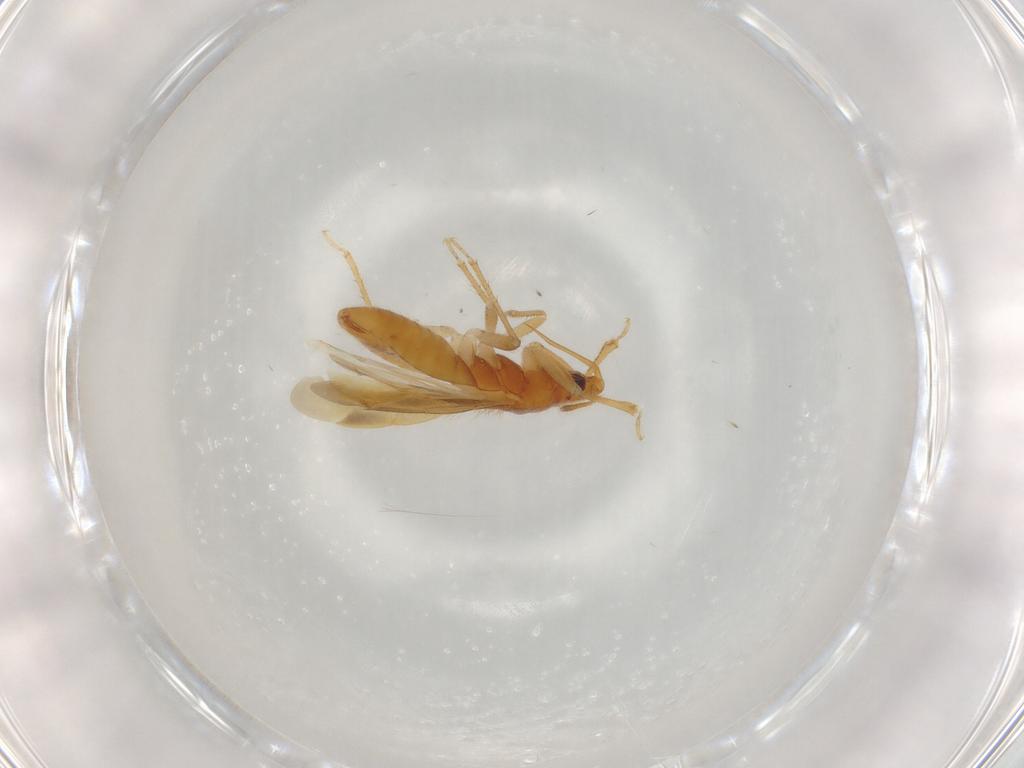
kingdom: Animalia
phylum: Arthropoda
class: Insecta
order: Hemiptera
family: Lasiochilidae
